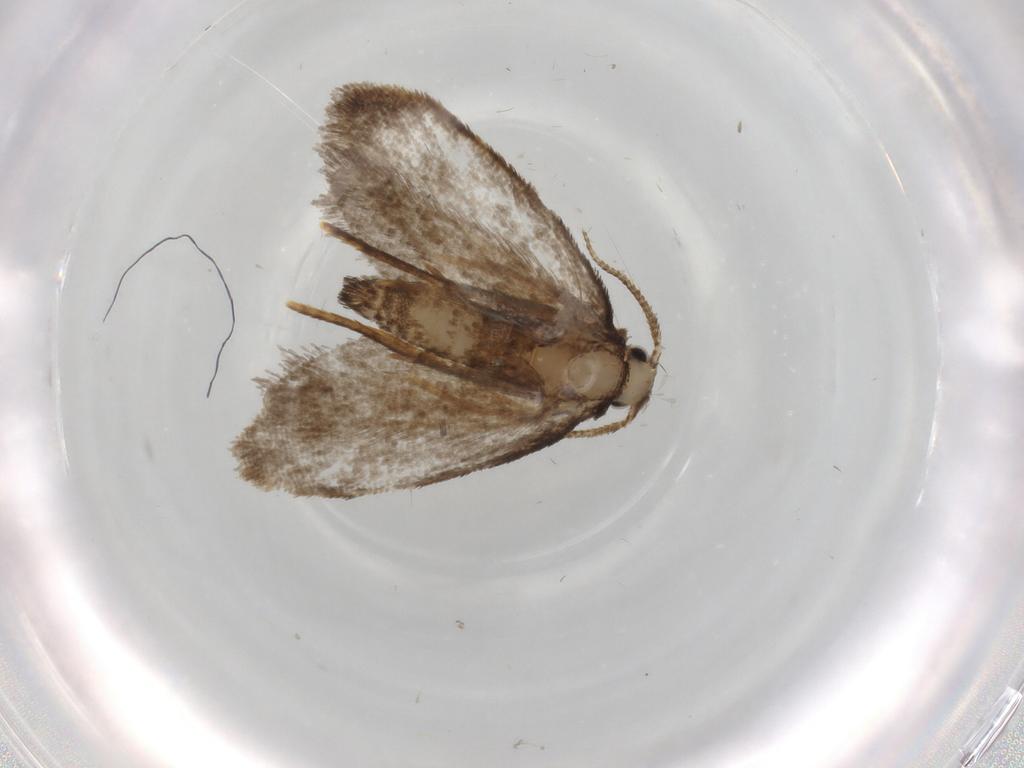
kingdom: Animalia
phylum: Arthropoda
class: Insecta
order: Lepidoptera
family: Psychidae
